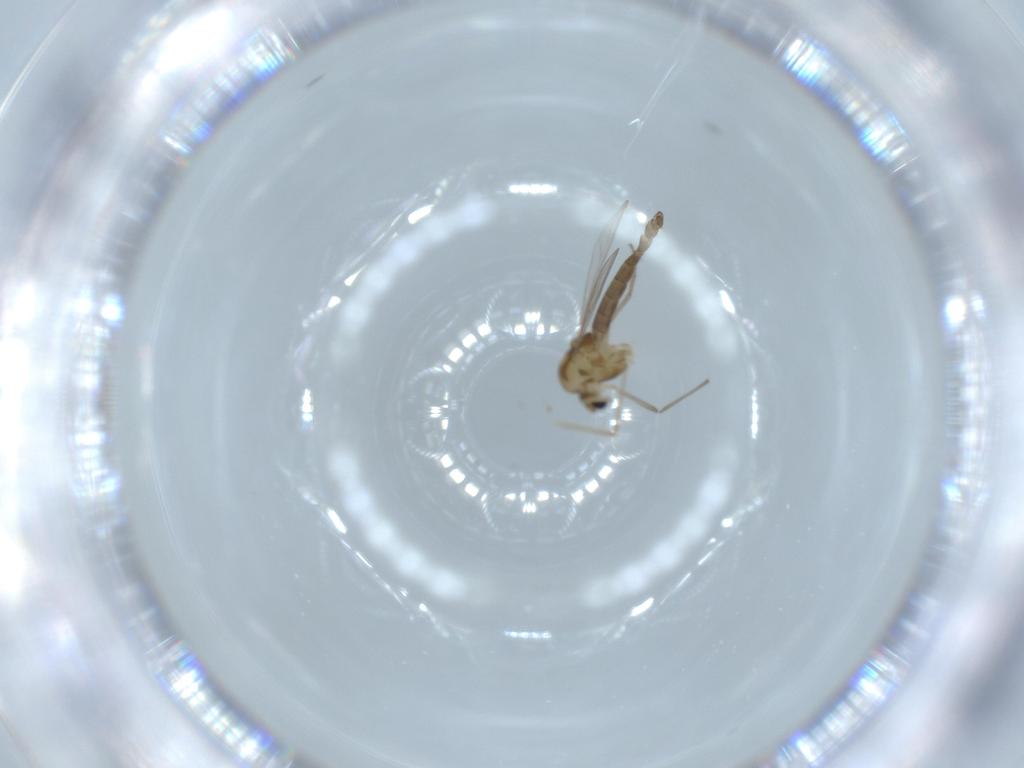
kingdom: Animalia
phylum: Arthropoda
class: Insecta
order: Diptera
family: Chironomidae
